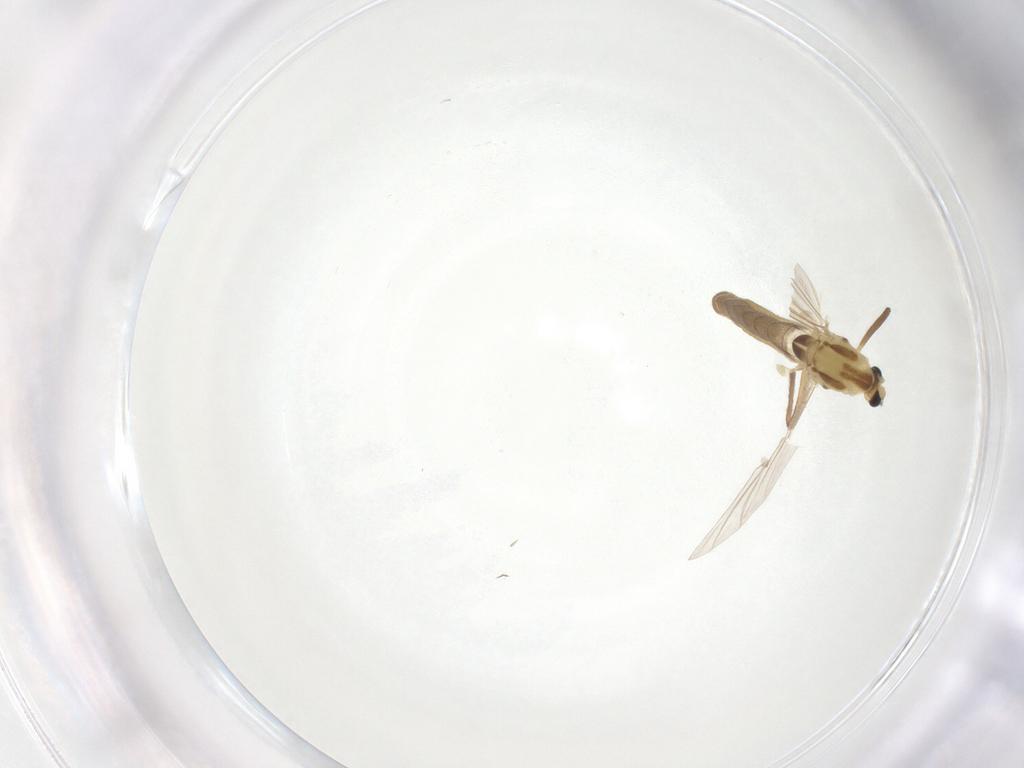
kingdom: Animalia
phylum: Arthropoda
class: Insecta
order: Diptera
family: Chironomidae
